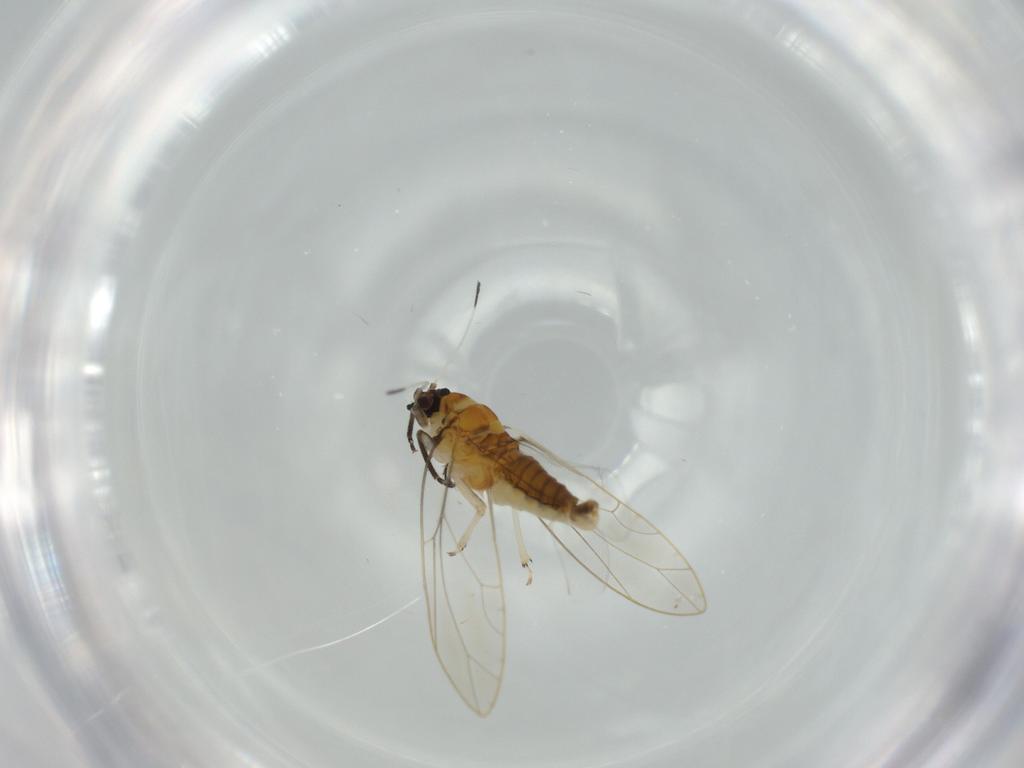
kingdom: Animalia
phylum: Arthropoda
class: Insecta
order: Hemiptera
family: Triozidae
